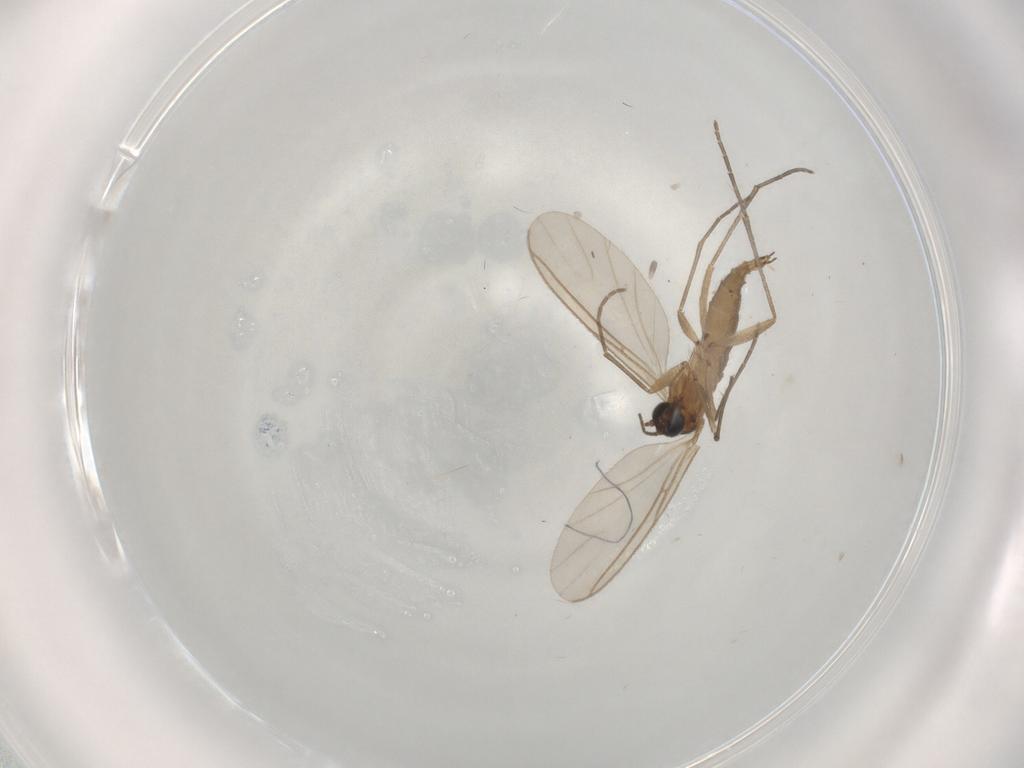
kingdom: Animalia
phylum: Arthropoda
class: Insecta
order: Diptera
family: Sciaridae
